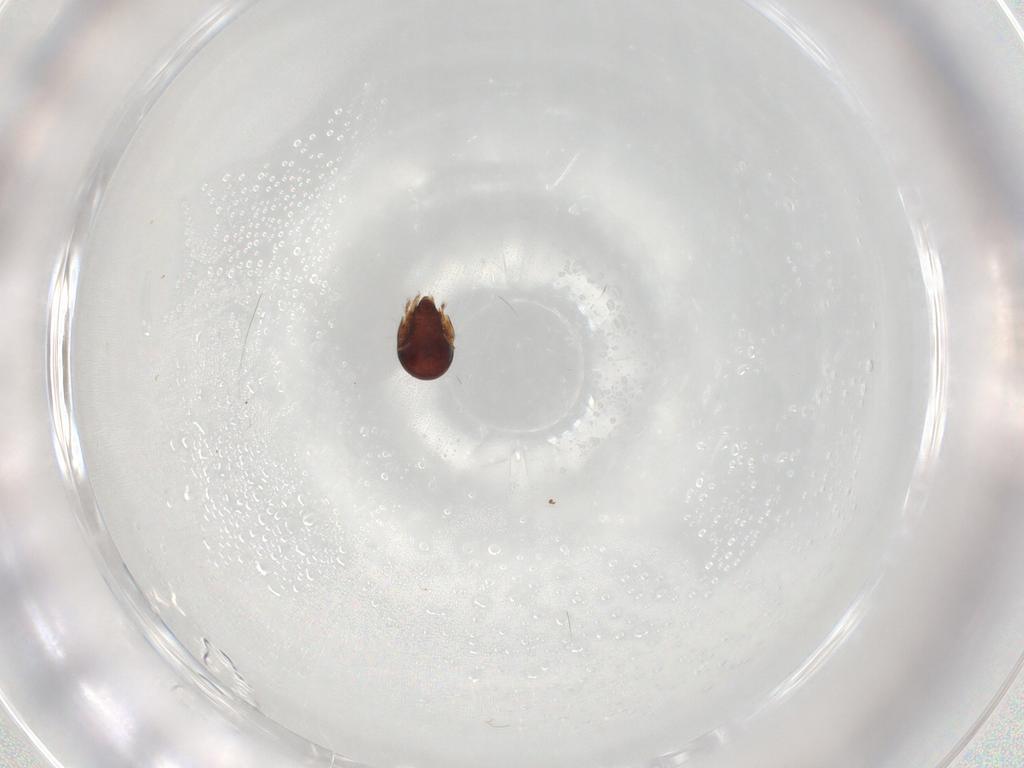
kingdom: Animalia
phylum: Arthropoda
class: Arachnida
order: Sarcoptiformes
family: Humerobatidae
